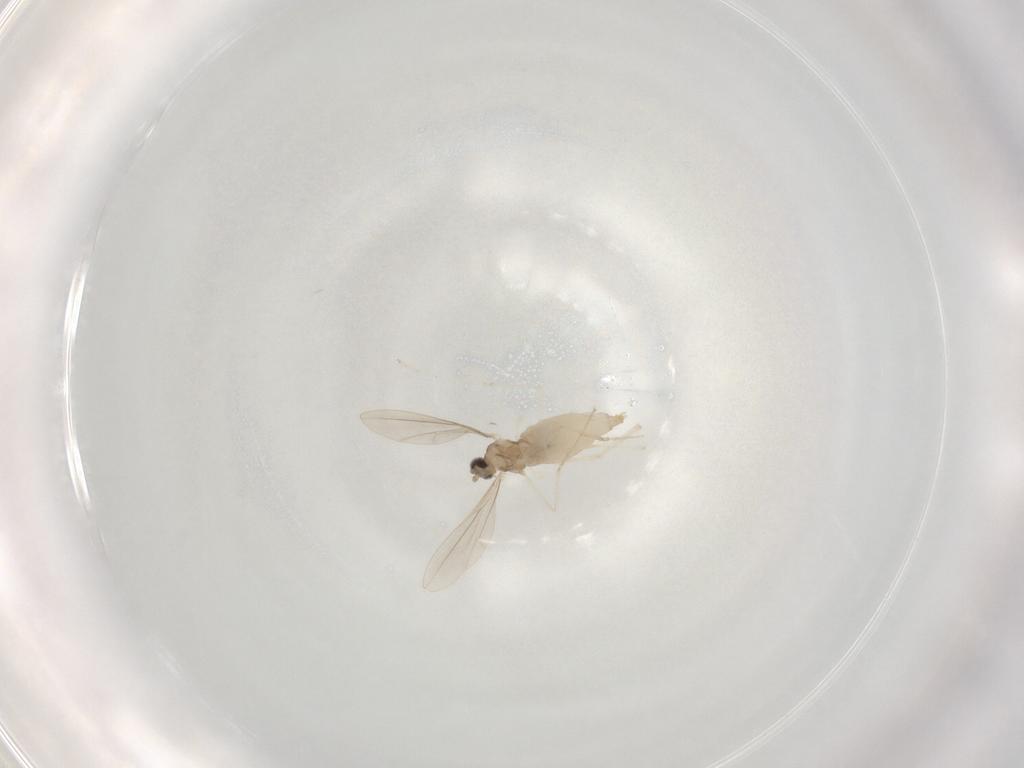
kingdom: Animalia
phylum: Arthropoda
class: Insecta
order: Diptera
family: Cecidomyiidae
